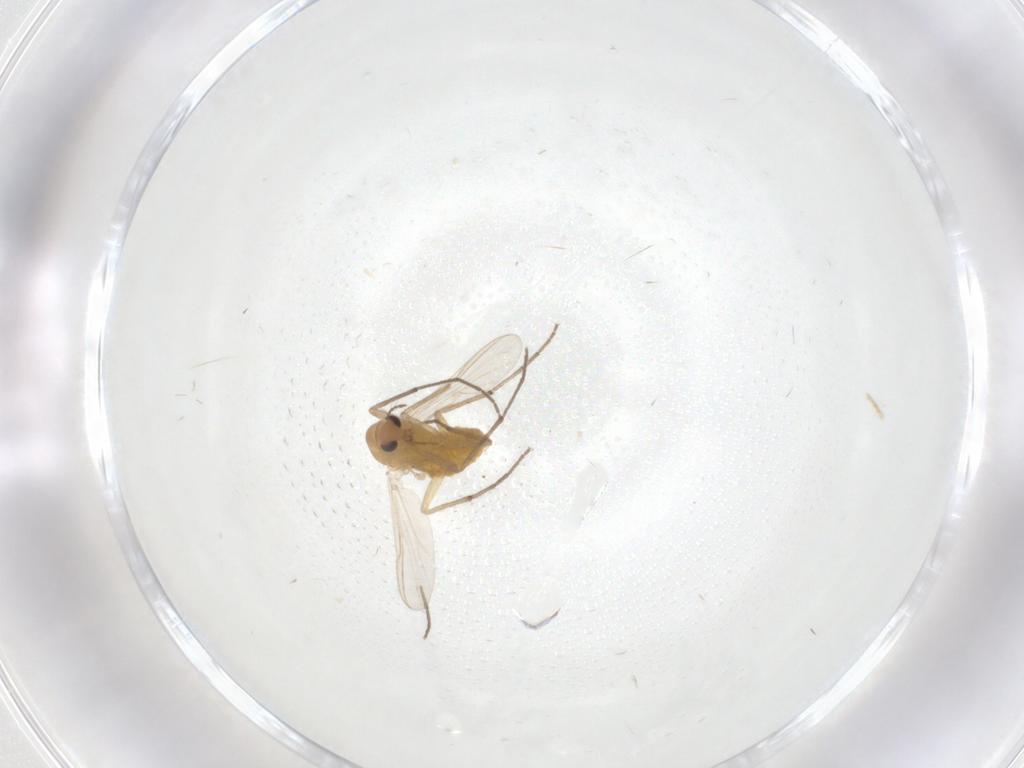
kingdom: Animalia
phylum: Arthropoda
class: Insecta
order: Diptera
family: Chironomidae
